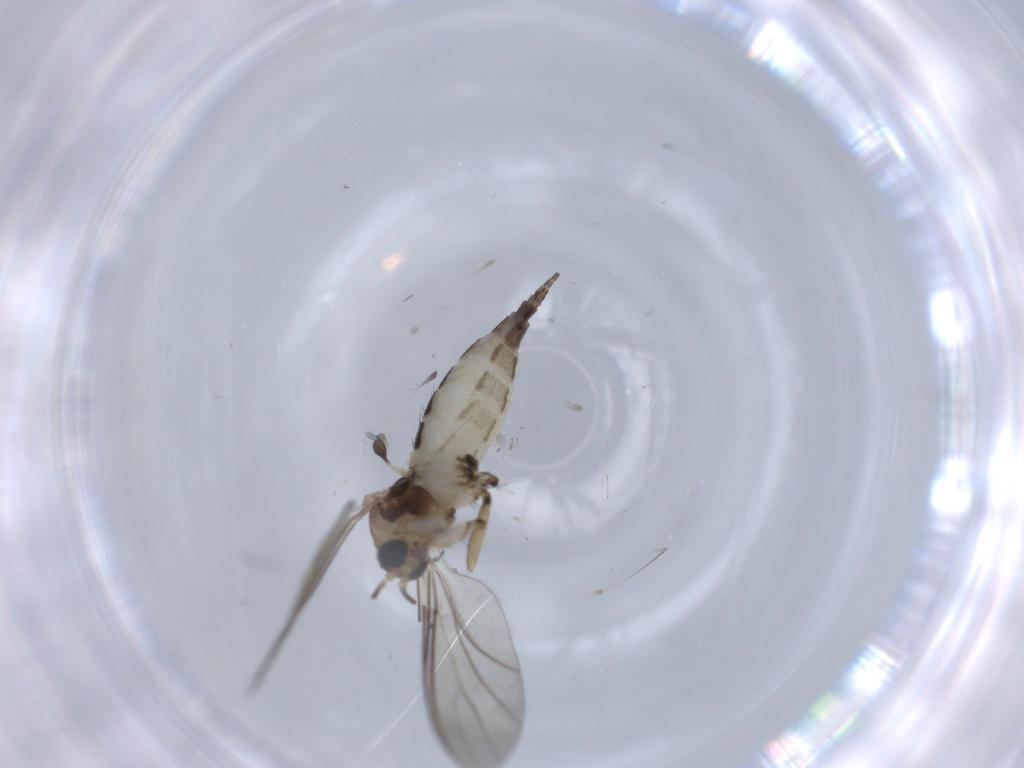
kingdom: Animalia
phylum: Arthropoda
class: Insecta
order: Diptera
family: Sciaridae
